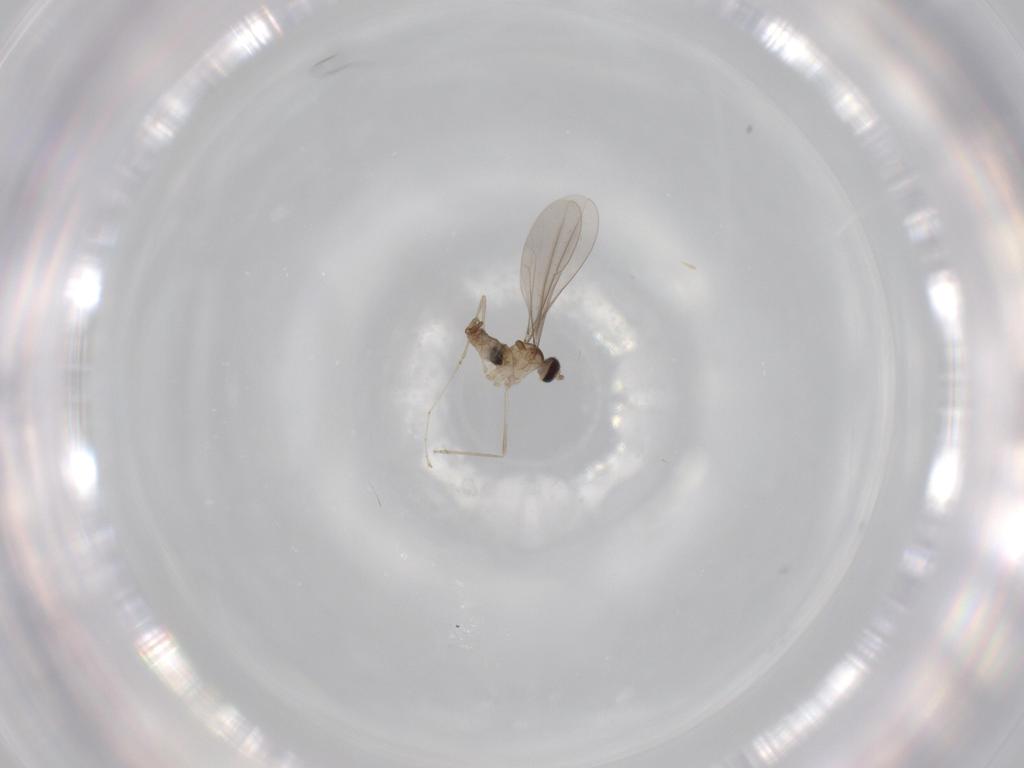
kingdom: Animalia
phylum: Arthropoda
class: Insecta
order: Diptera
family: Cecidomyiidae
